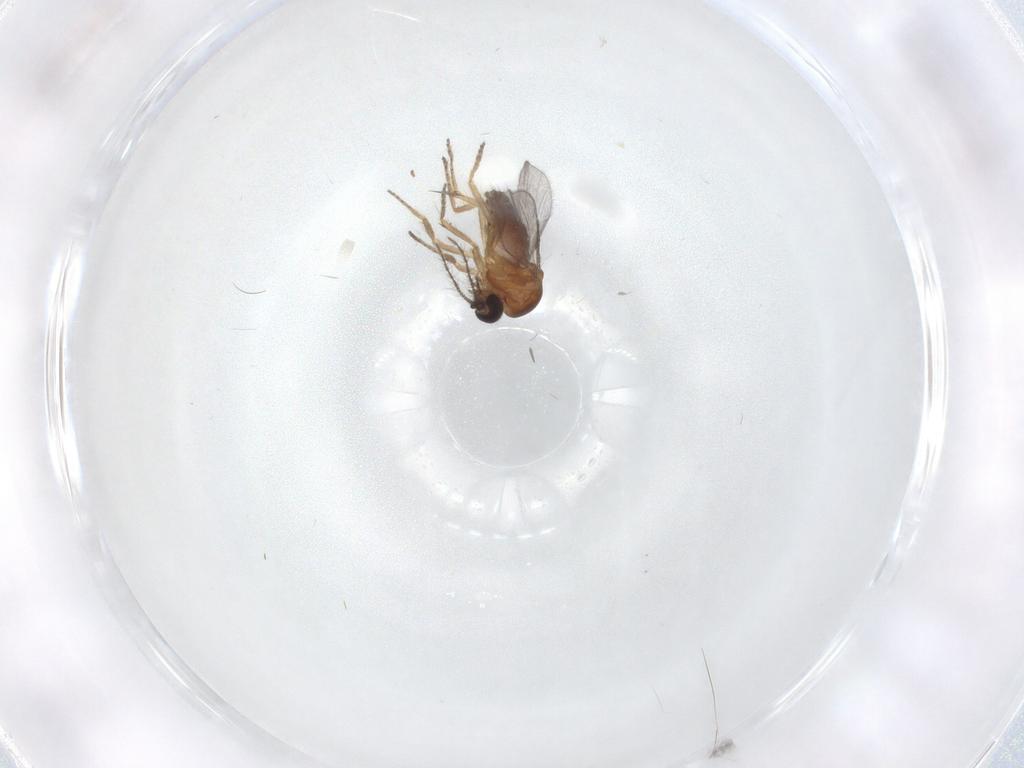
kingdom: Animalia
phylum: Arthropoda
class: Insecta
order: Diptera
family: Ceratopogonidae
